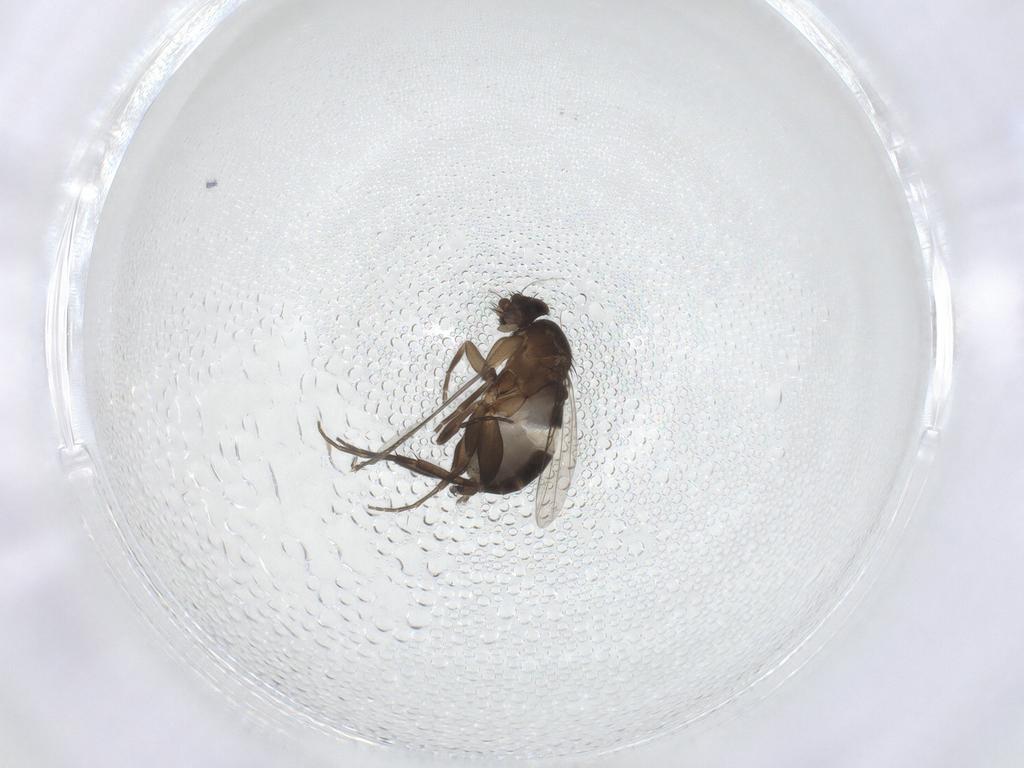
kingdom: Animalia
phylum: Arthropoda
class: Insecta
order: Diptera
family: Phoridae
